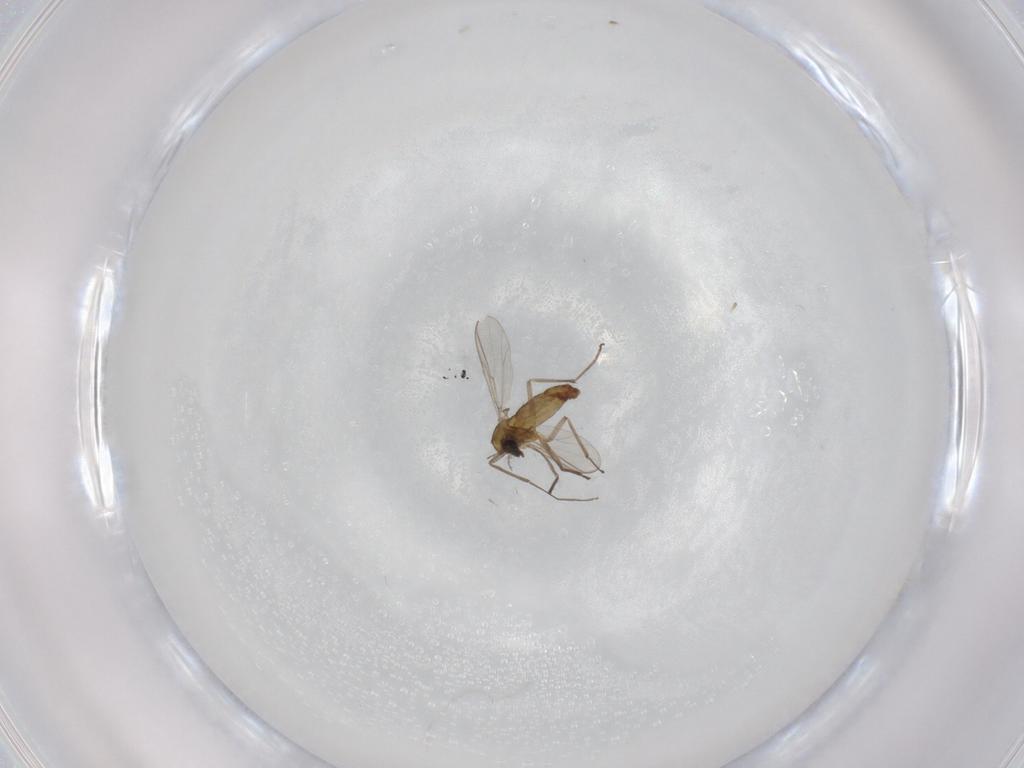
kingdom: Animalia
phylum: Arthropoda
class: Insecta
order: Diptera
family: Chironomidae
